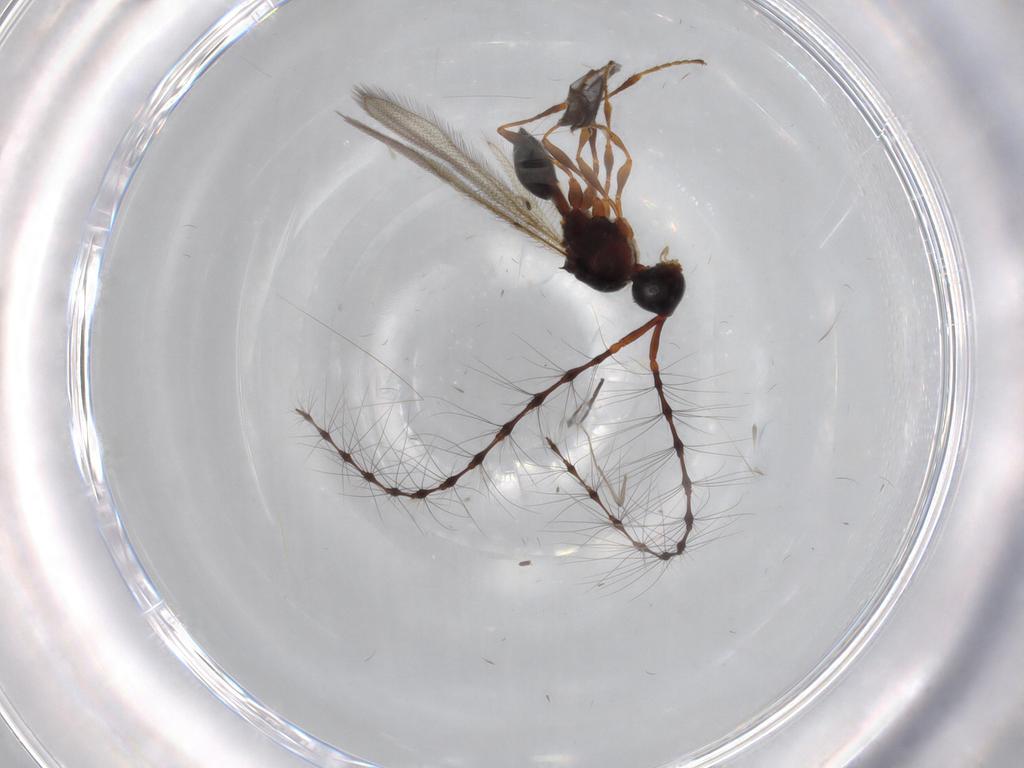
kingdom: Animalia
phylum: Arthropoda
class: Insecta
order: Hymenoptera
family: Diapriidae
